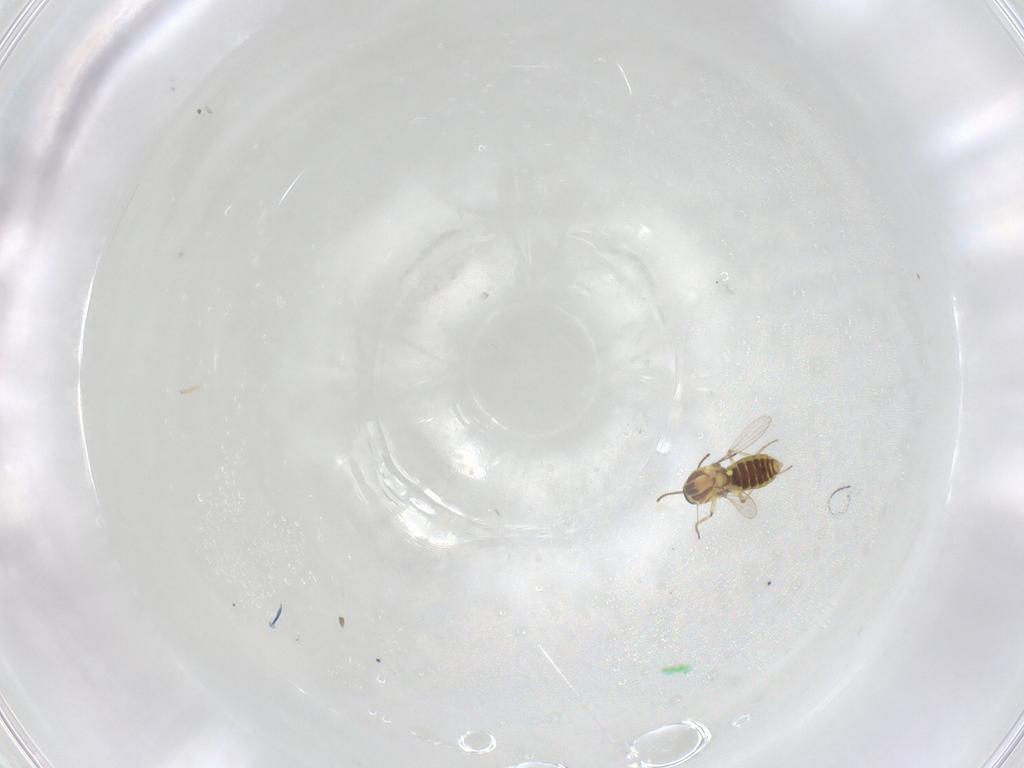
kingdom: Animalia
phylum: Arthropoda
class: Insecta
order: Diptera
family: Ceratopogonidae
